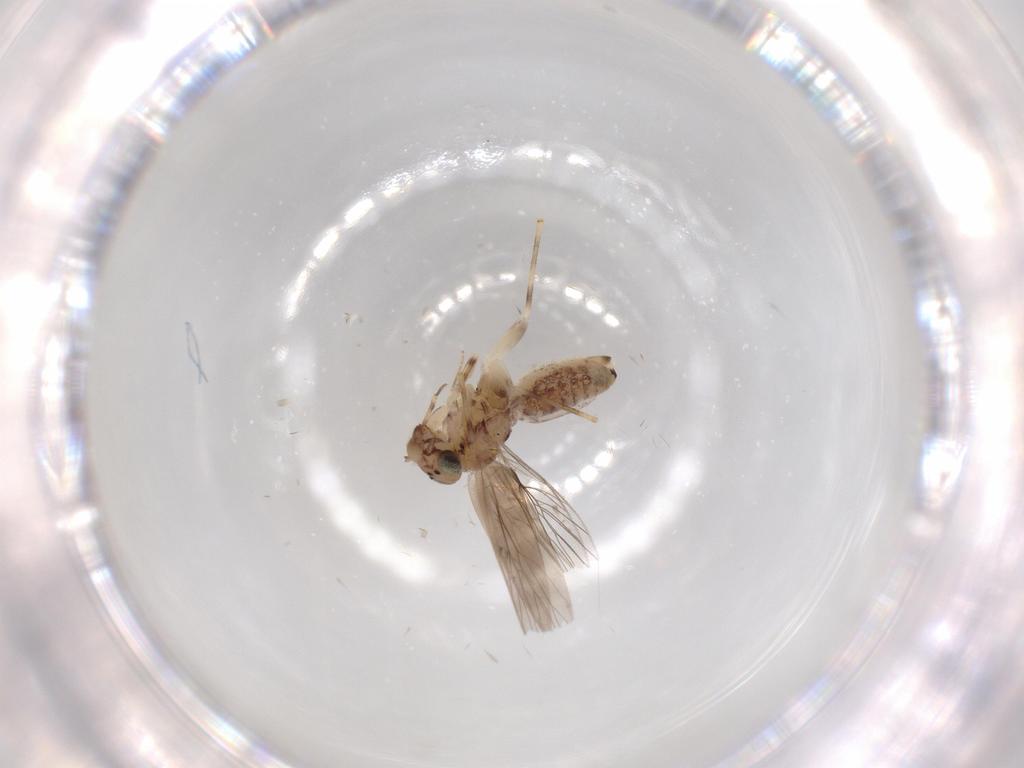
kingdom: Animalia
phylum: Arthropoda
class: Insecta
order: Psocodea
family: Lepidopsocidae
